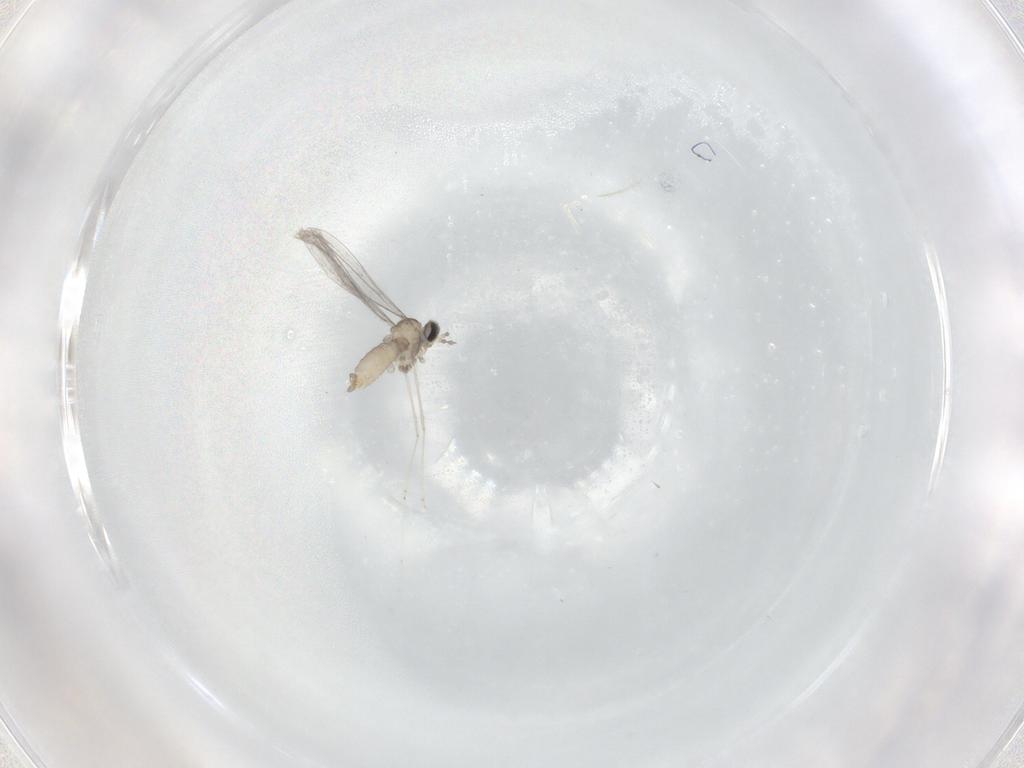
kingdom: Animalia
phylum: Arthropoda
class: Insecta
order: Diptera
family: Cecidomyiidae
